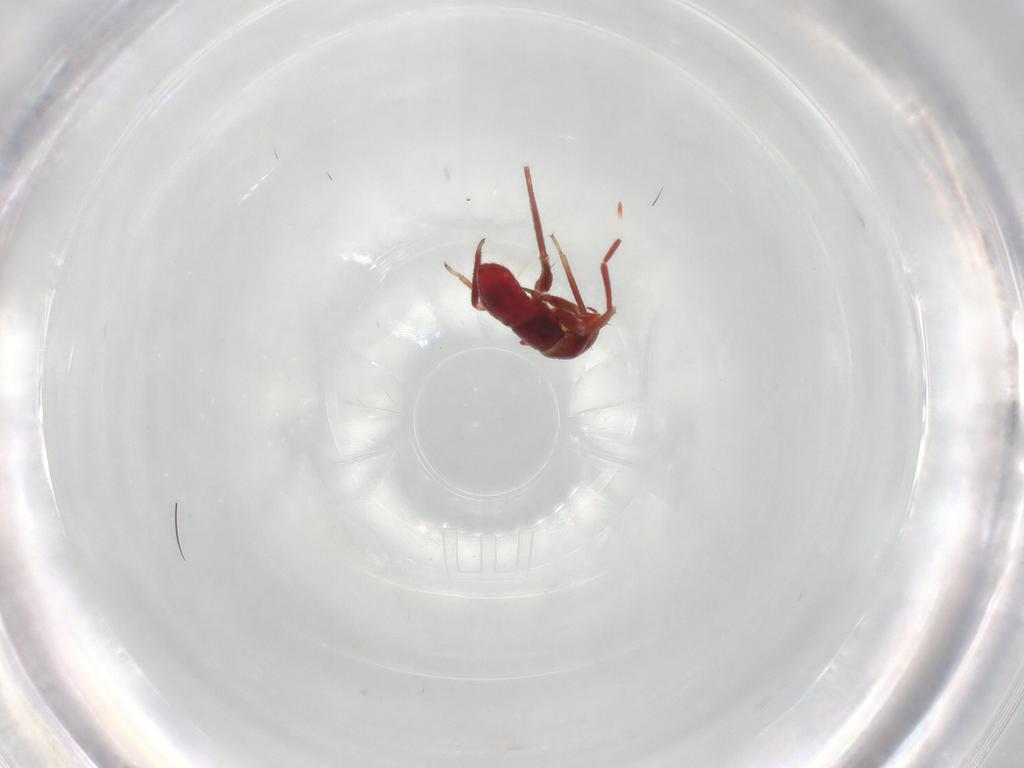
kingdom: Animalia
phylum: Arthropoda
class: Insecta
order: Hemiptera
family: Miridae
